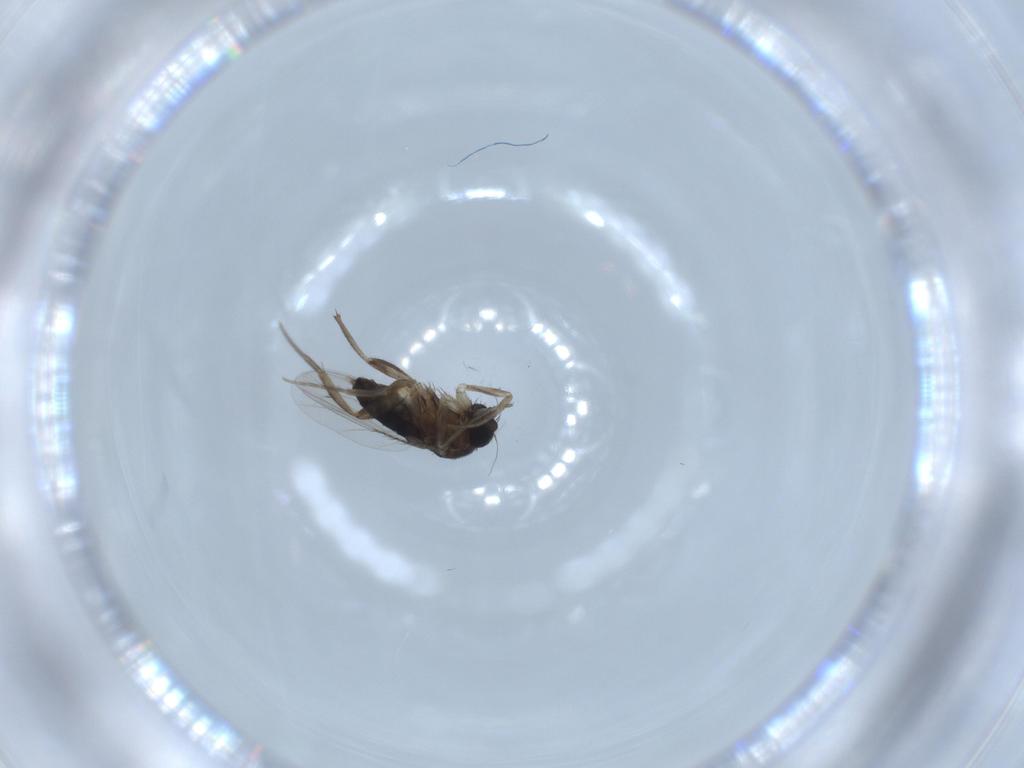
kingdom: Animalia
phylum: Arthropoda
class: Insecta
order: Diptera
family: Phoridae
